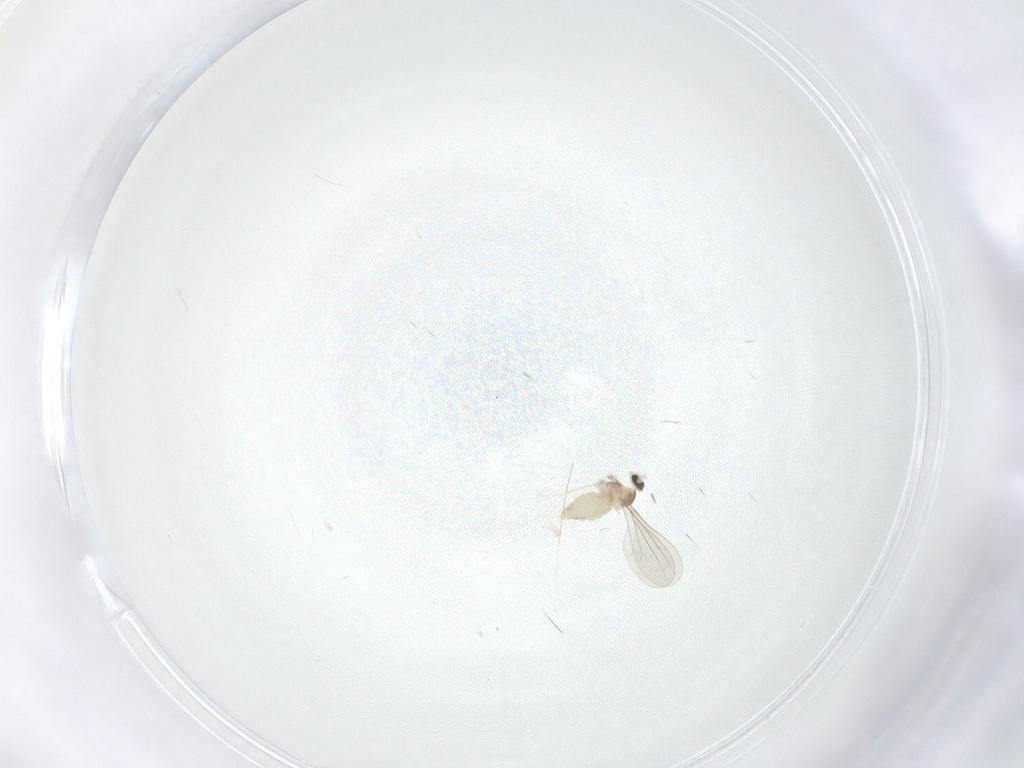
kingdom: Animalia
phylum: Arthropoda
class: Insecta
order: Diptera
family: Cecidomyiidae
